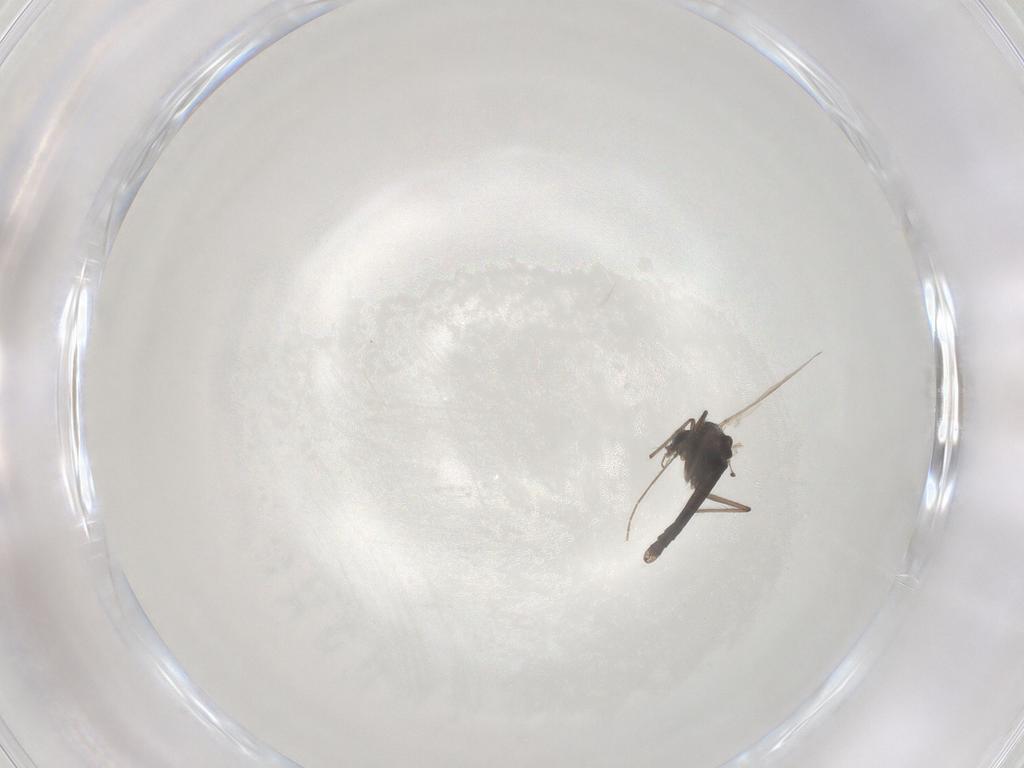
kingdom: Animalia
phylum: Arthropoda
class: Insecta
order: Diptera
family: Chironomidae
